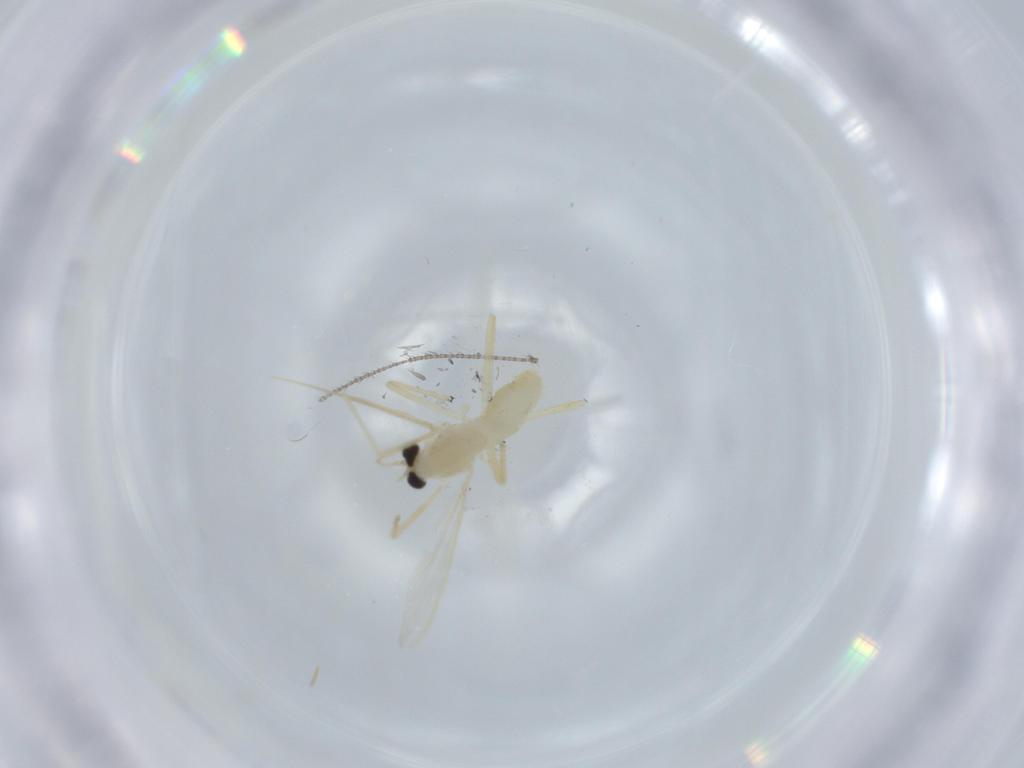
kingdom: Animalia
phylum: Arthropoda
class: Insecta
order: Diptera
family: Chironomidae
